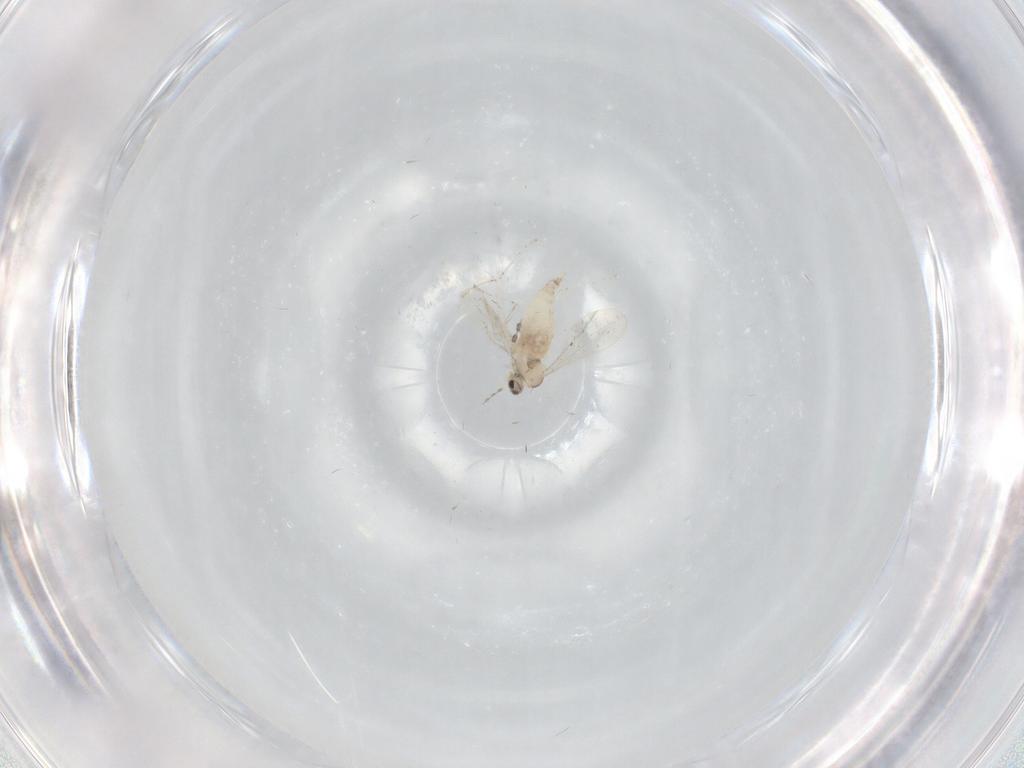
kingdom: Animalia
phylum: Arthropoda
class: Insecta
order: Diptera
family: Cecidomyiidae
